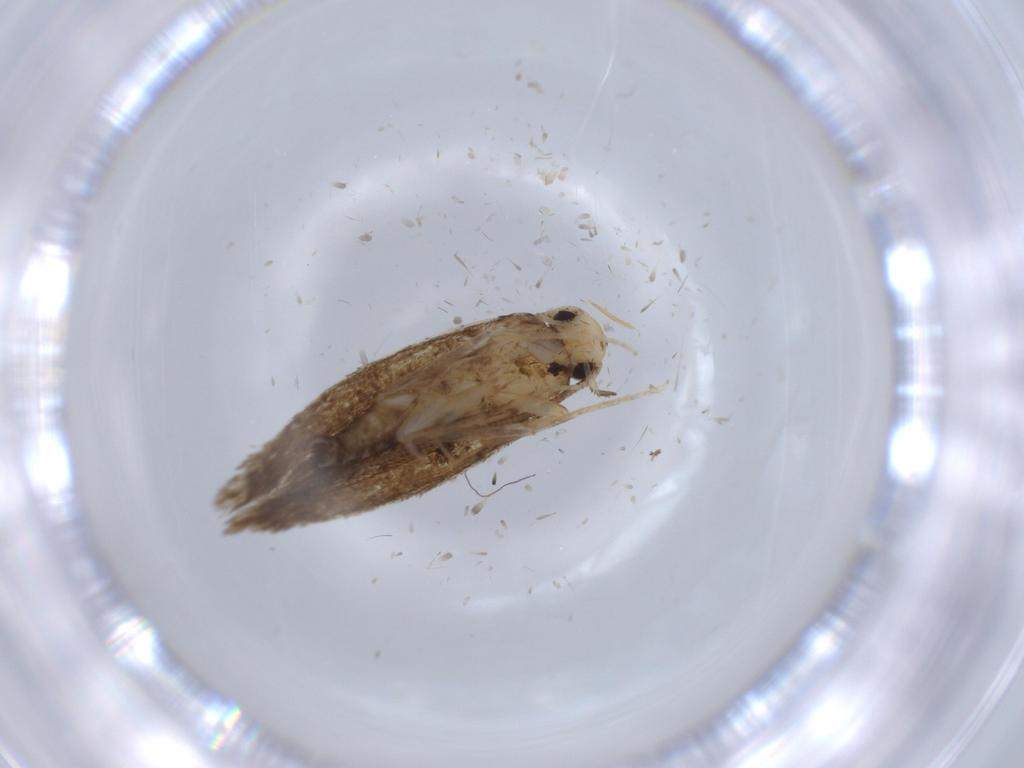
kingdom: Animalia
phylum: Arthropoda
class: Insecta
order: Lepidoptera
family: Tineidae
